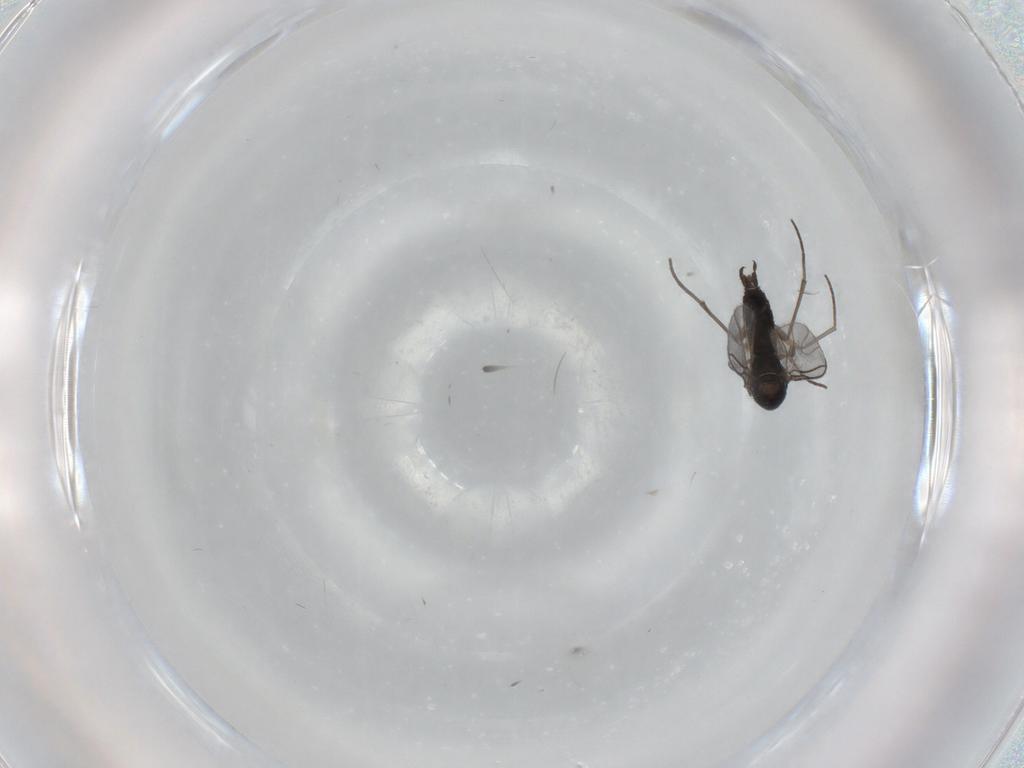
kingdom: Animalia
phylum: Arthropoda
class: Insecta
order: Diptera
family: Sciaridae
